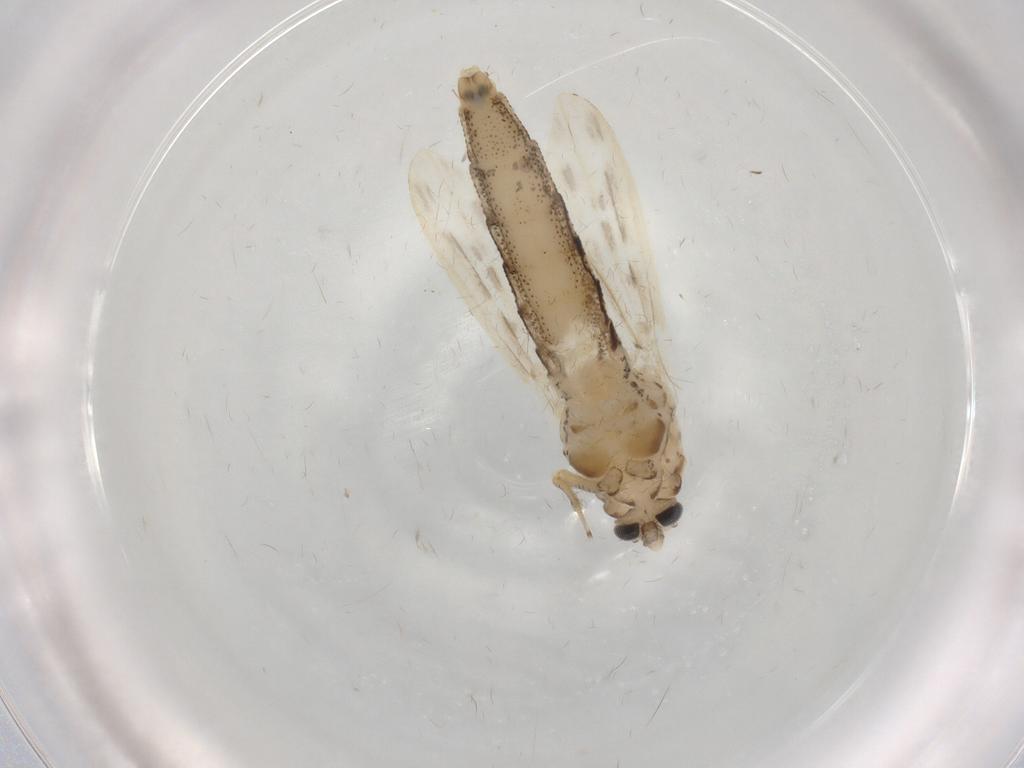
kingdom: Animalia
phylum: Arthropoda
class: Insecta
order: Diptera
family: Chaoboridae
